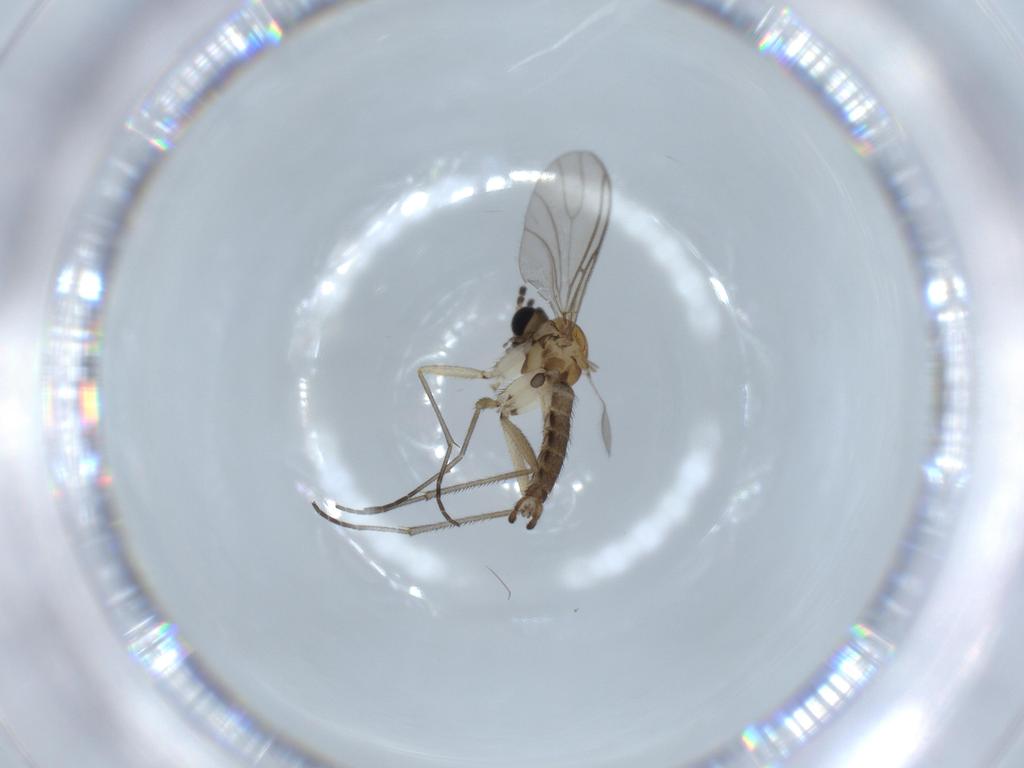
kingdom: Animalia
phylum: Arthropoda
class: Insecta
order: Diptera
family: Sciaridae
